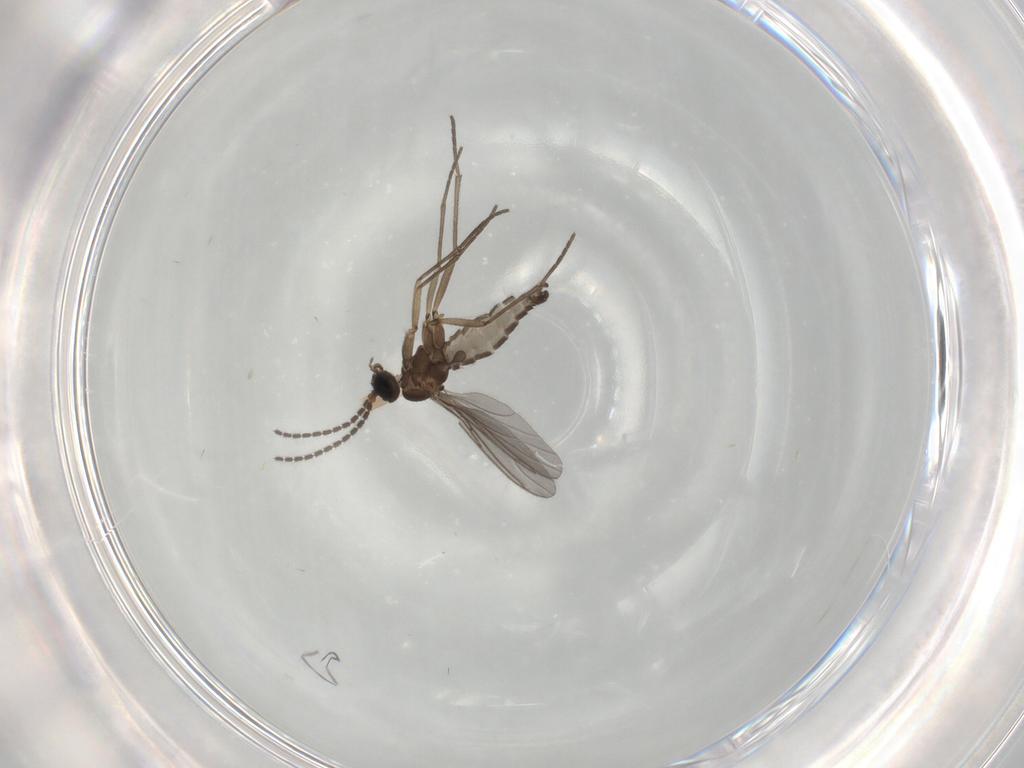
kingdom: Animalia
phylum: Arthropoda
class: Insecta
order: Diptera
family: Sciaridae
